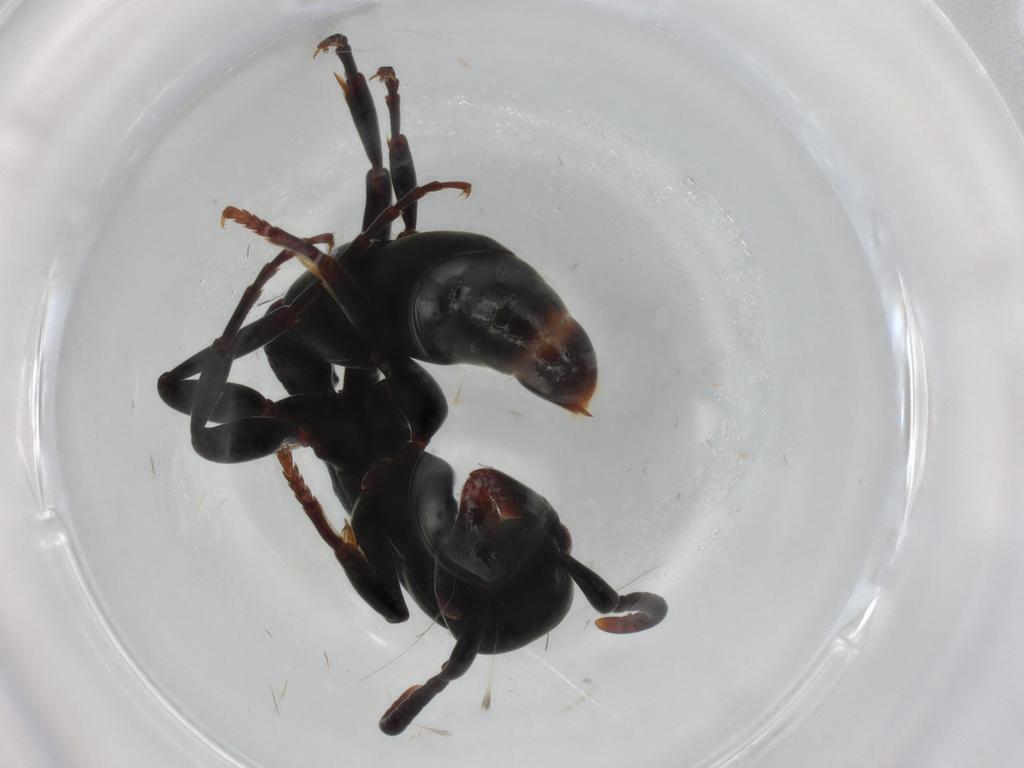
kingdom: Animalia
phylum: Arthropoda
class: Insecta
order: Hymenoptera
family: Formicidae
